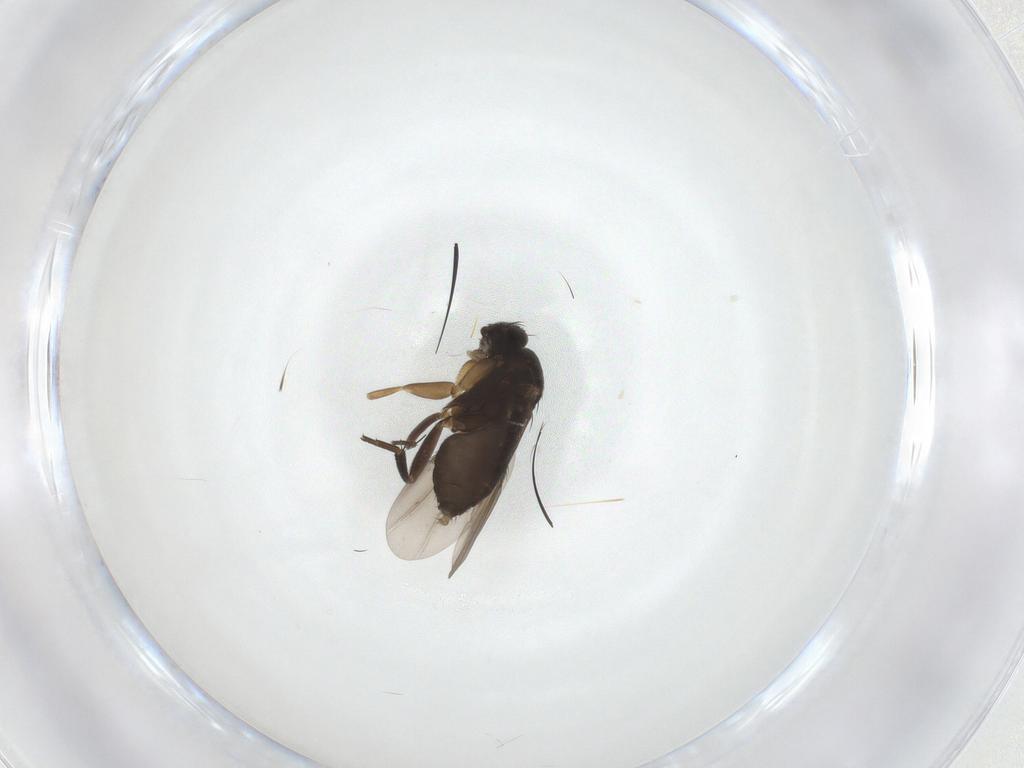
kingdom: Animalia
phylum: Arthropoda
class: Insecta
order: Diptera
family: Phoridae
